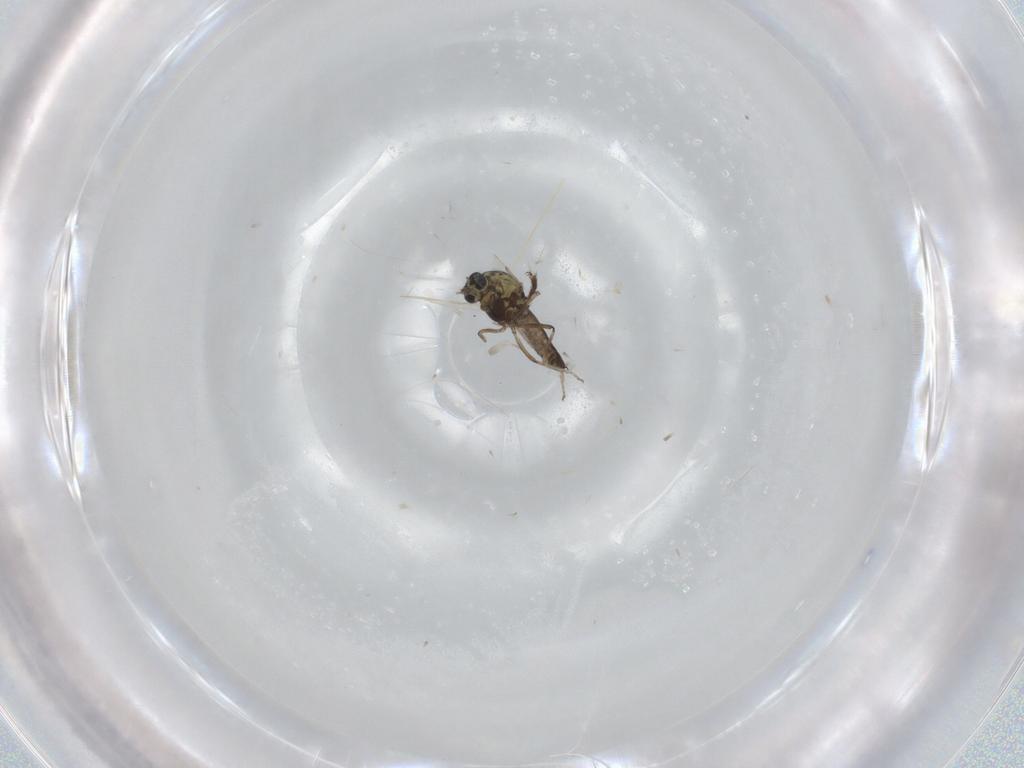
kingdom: Animalia
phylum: Arthropoda
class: Insecta
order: Diptera
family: Ceratopogonidae
